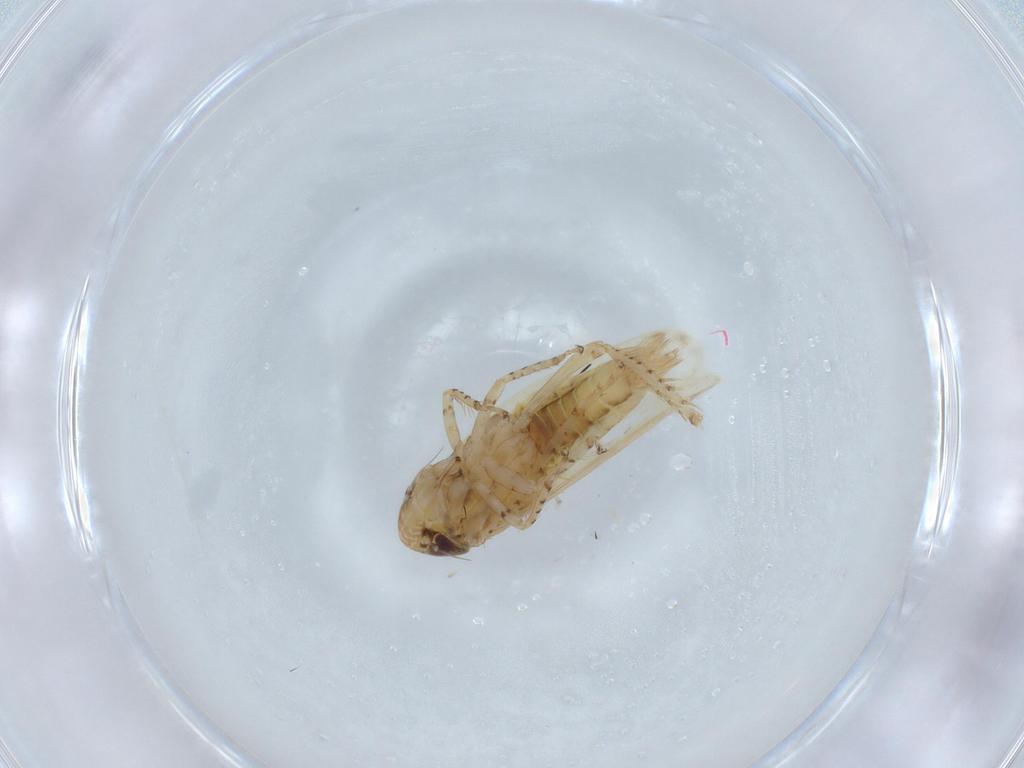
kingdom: Animalia
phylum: Arthropoda
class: Insecta
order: Hemiptera
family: Cicadellidae
